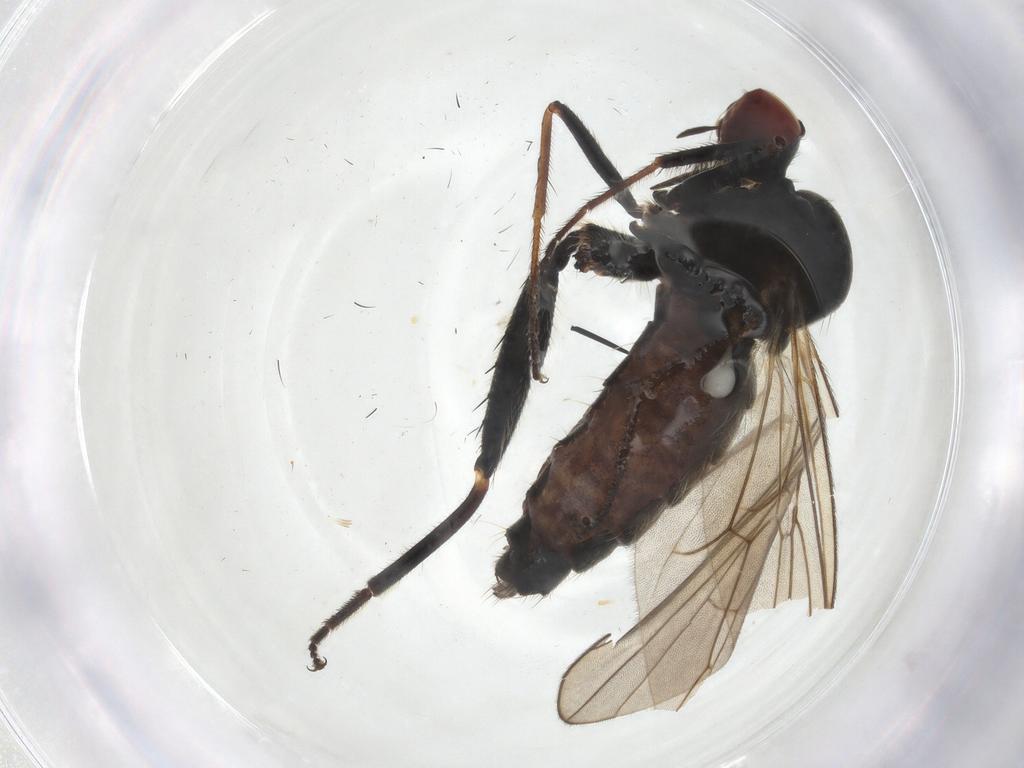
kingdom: Animalia
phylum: Arthropoda
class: Insecta
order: Diptera
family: Hybotidae
